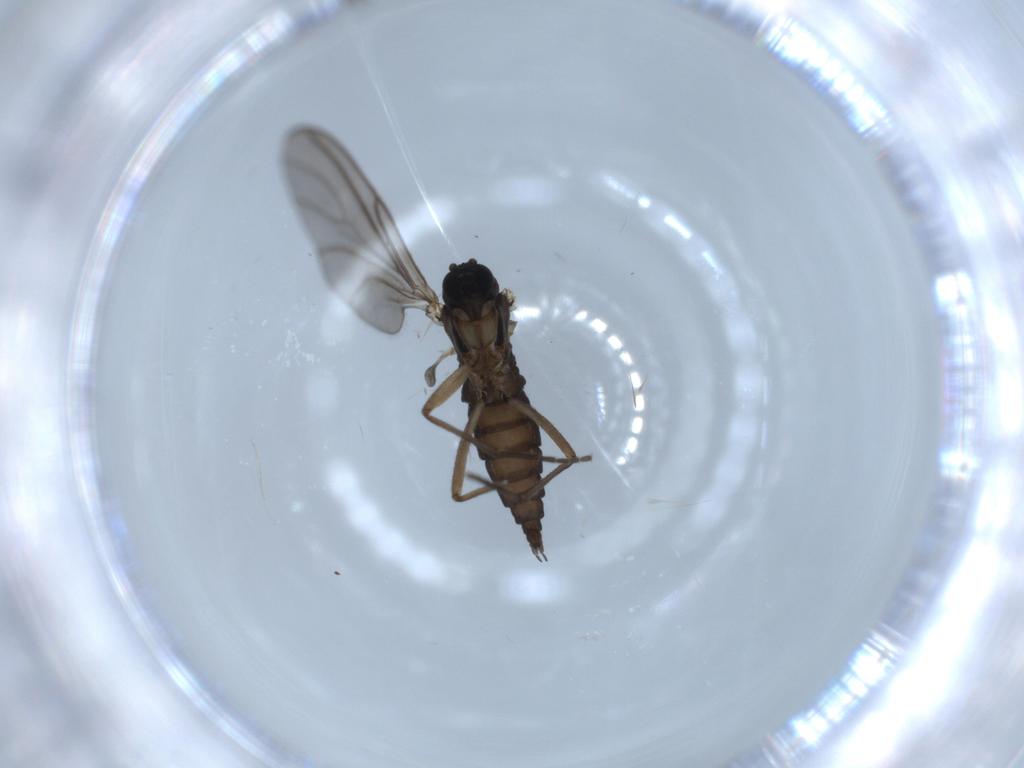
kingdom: Animalia
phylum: Arthropoda
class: Insecta
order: Diptera
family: Sciaridae
